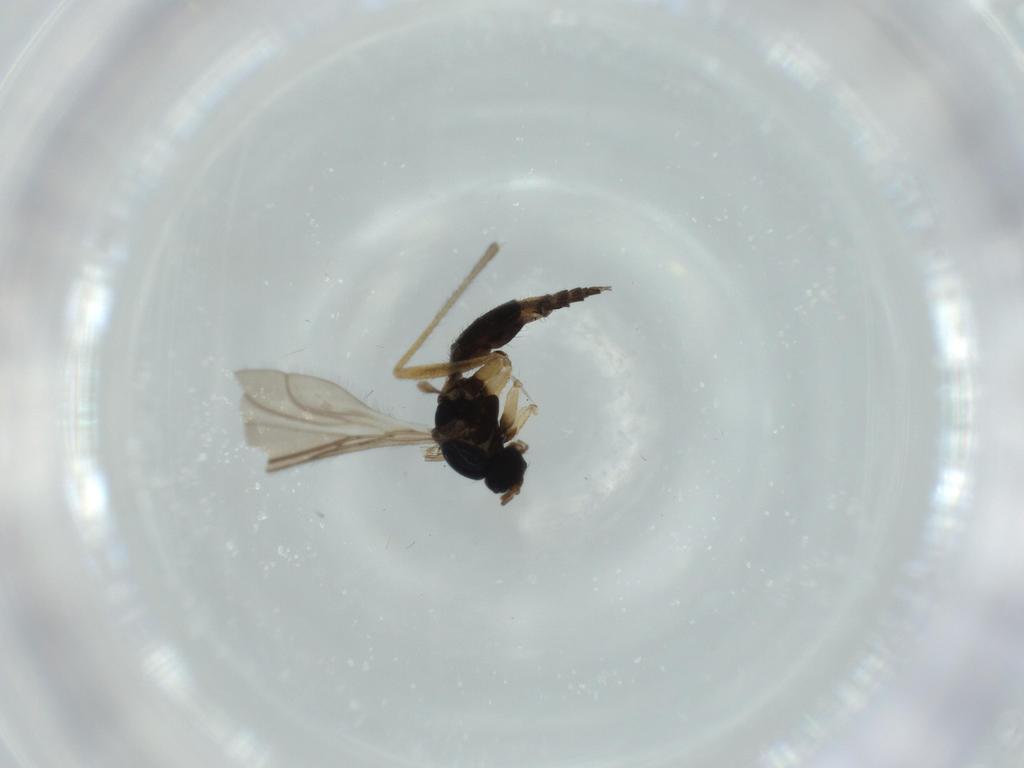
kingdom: Animalia
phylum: Arthropoda
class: Insecta
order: Diptera
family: Sciaridae
